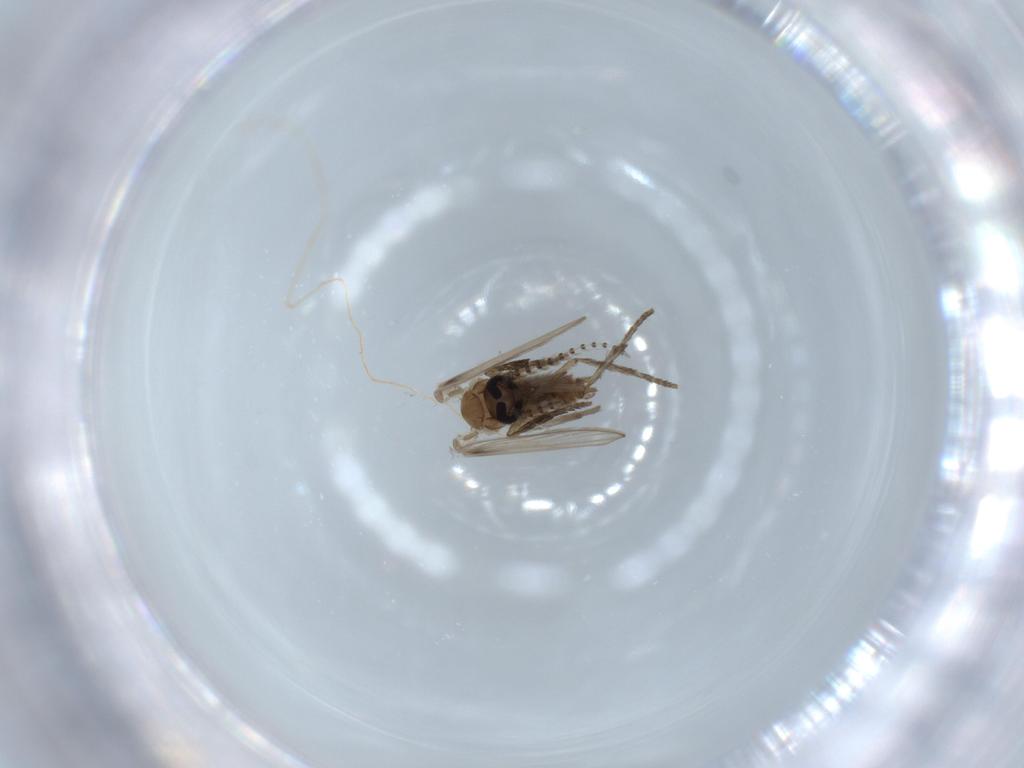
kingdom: Animalia
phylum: Arthropoda
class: Insecta
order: Diptera
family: Psychodidae
